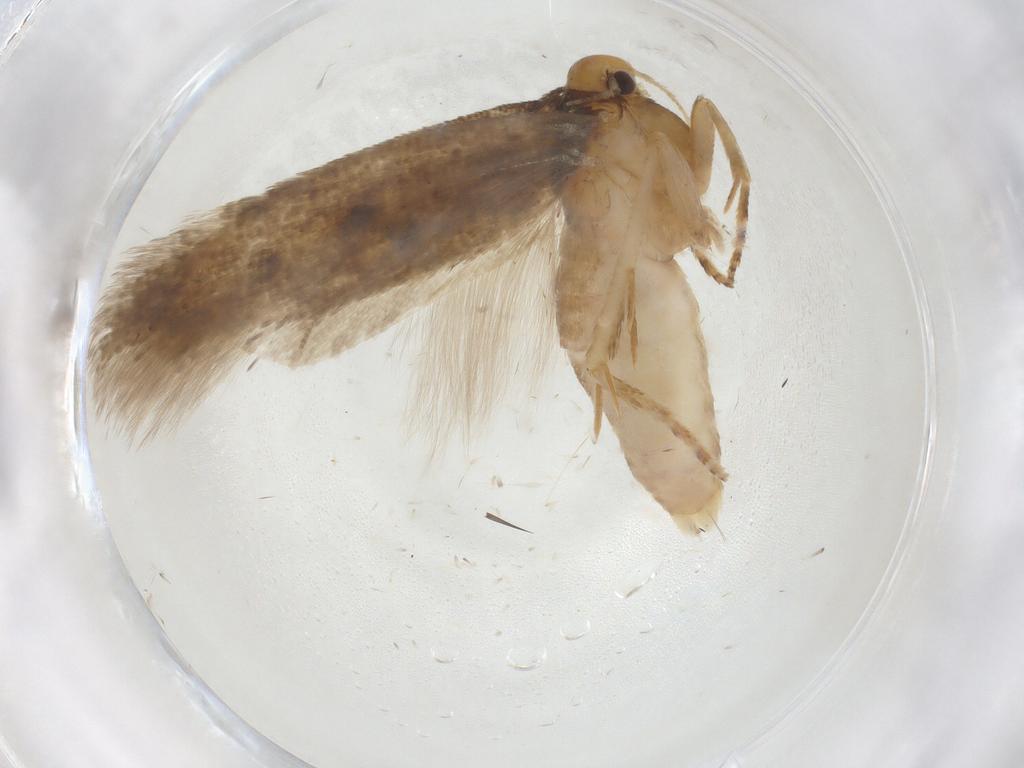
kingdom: Animalia
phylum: Arthropoda
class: Insecta
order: Lepidoptera
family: Gelechiidae
